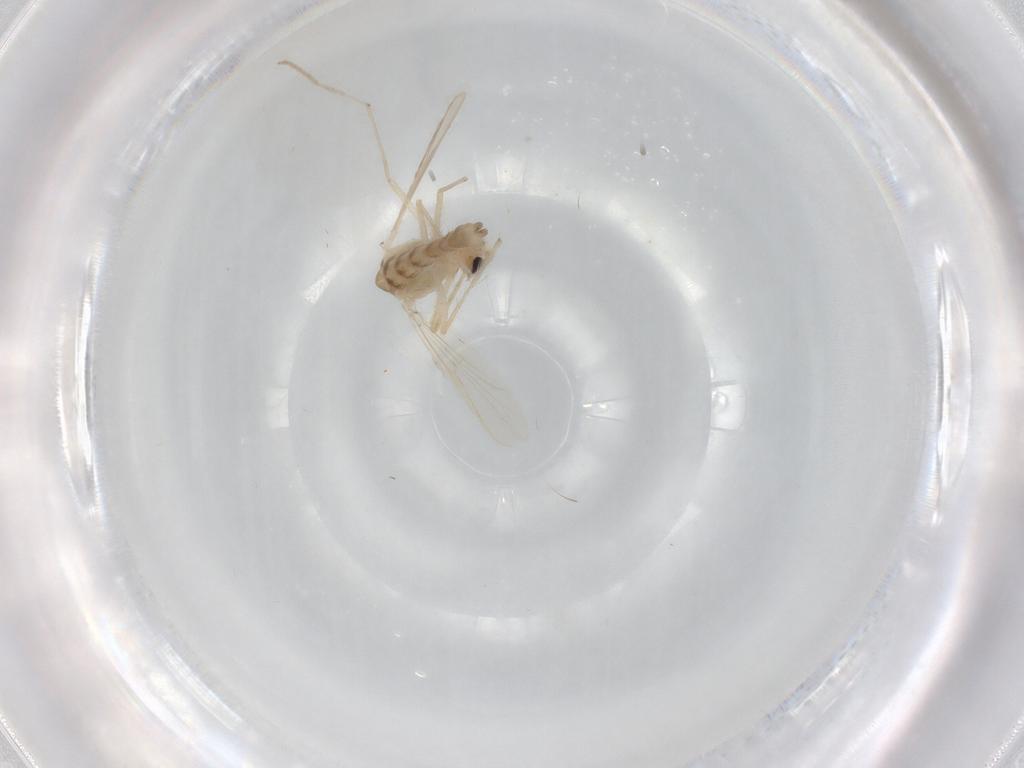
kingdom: Animalia
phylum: Arthropoda
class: Insecta
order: Diptera
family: Chironomidae
